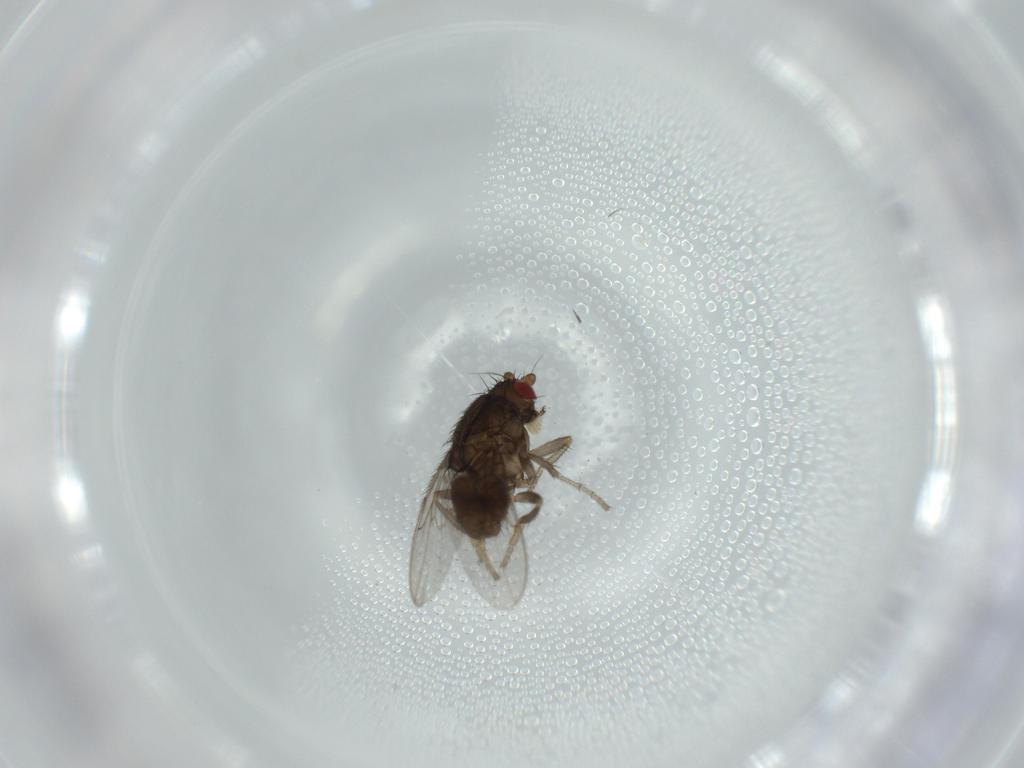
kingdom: Animalia
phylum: Arthropoda
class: Insecta
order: Diptera
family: Sphaeroceridae
